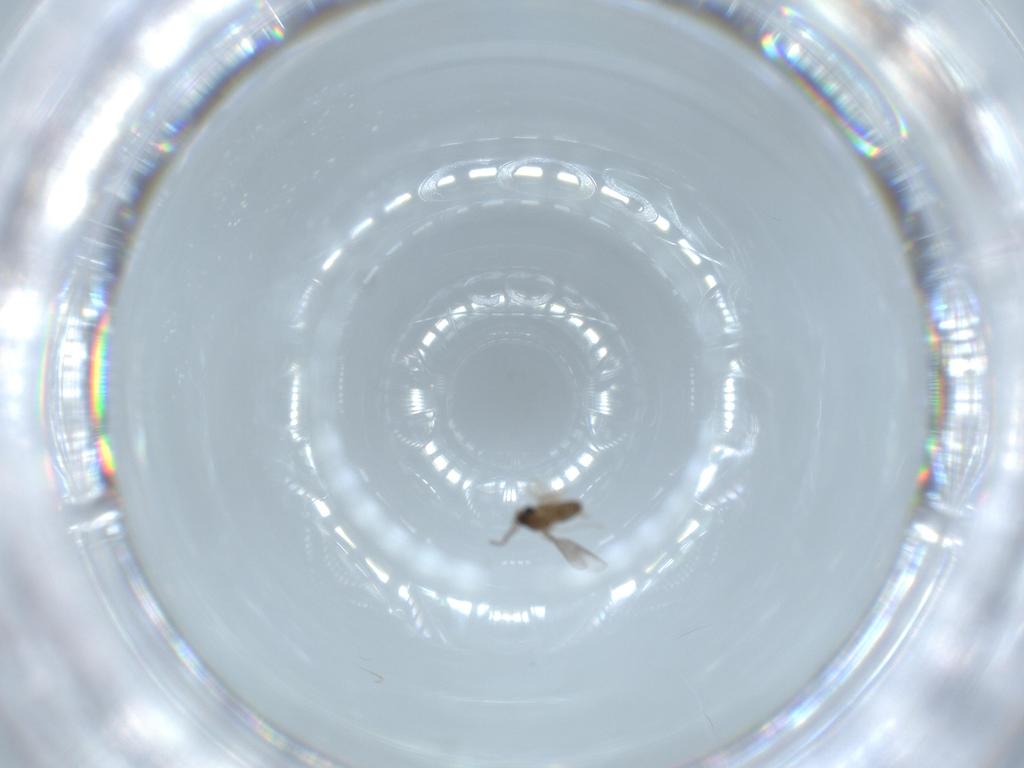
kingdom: Animalia
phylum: Arthropoda
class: Insecta
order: Diptera
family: Cecidomyiidae
